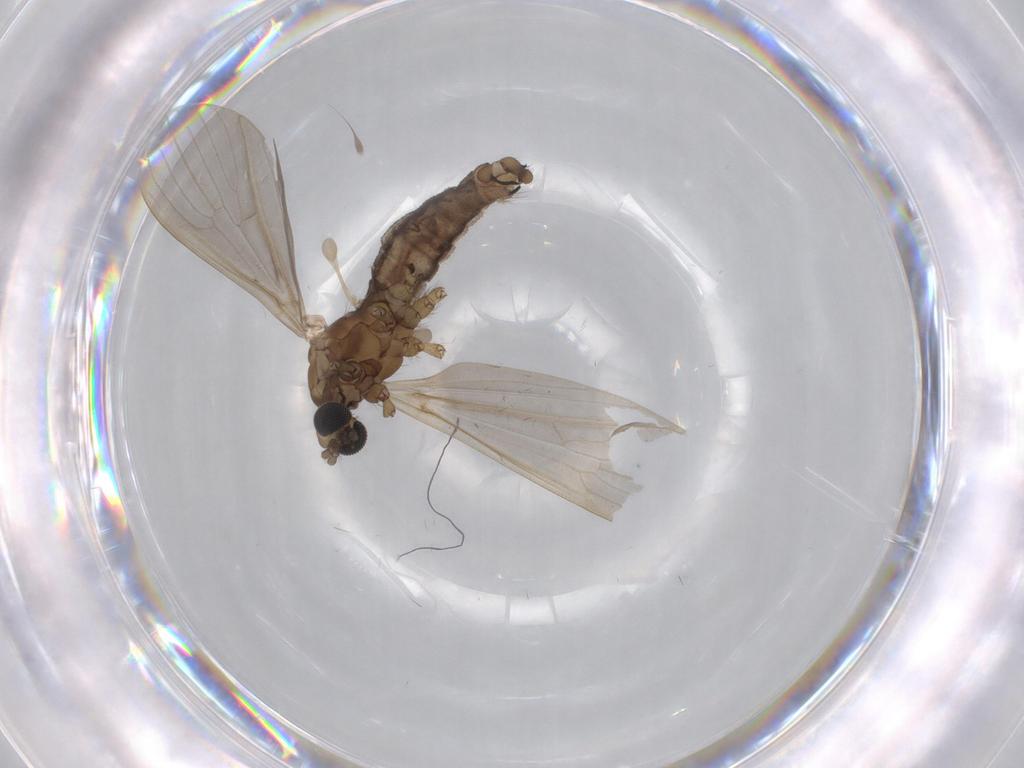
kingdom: Animalia
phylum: Arthropoda
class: Insecta
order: Diptera
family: Limoniidae
